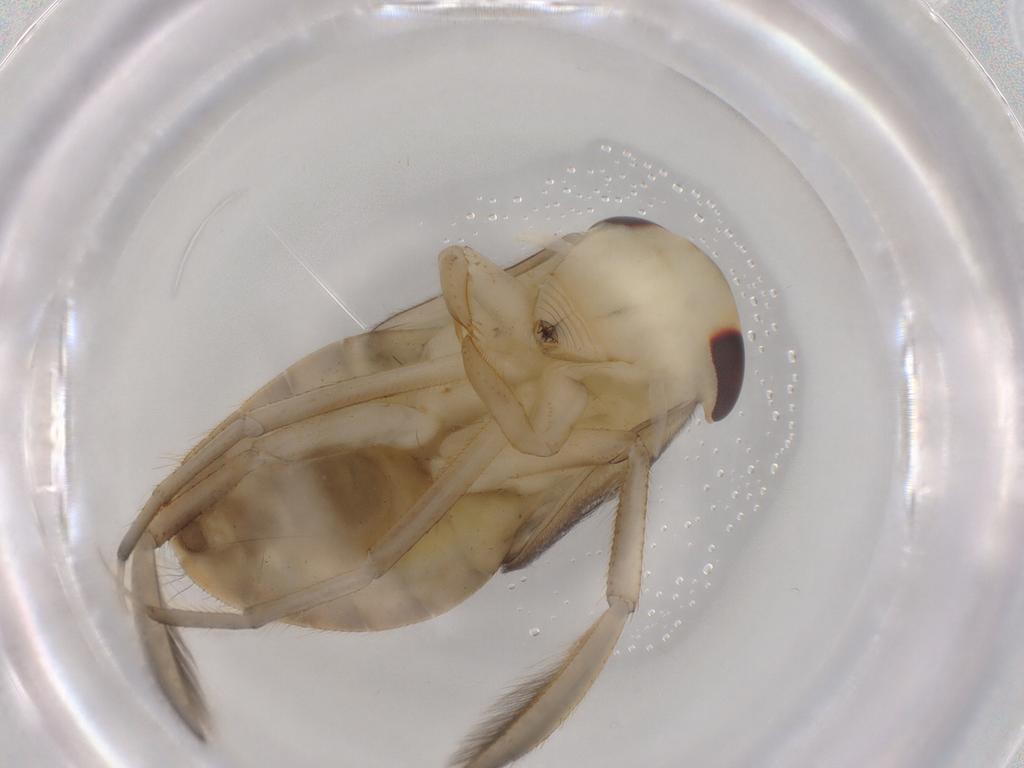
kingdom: Animalia
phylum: Arthropoda
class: Insecta
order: Hemiptera
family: Corixidae
